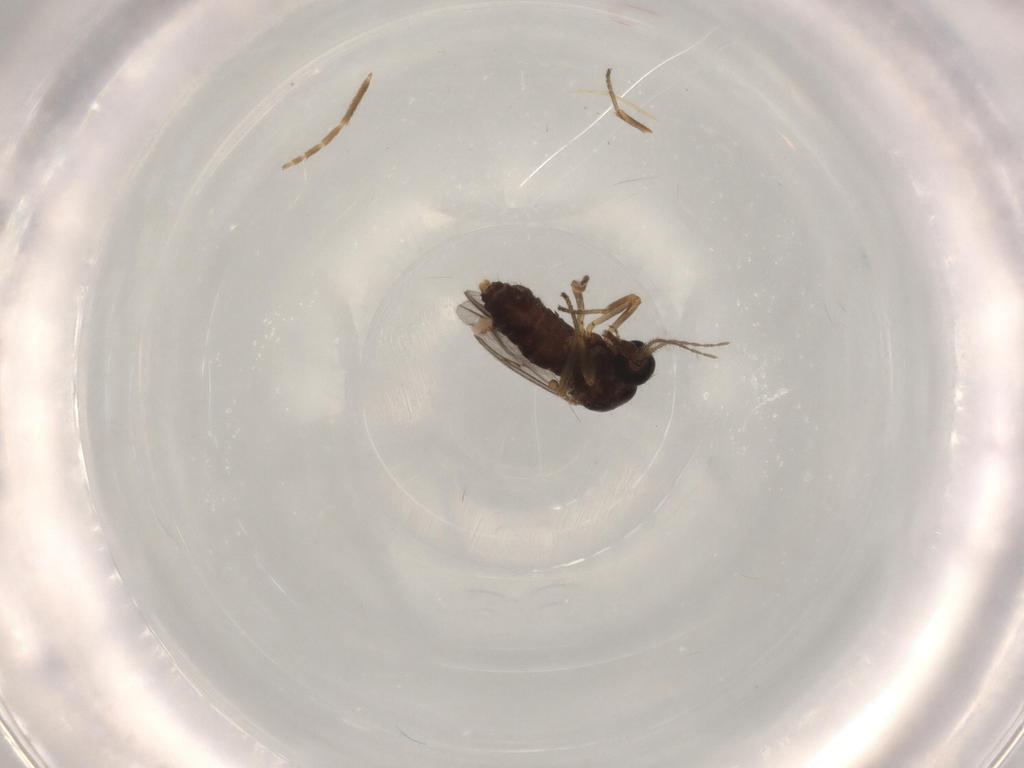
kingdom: Animalia
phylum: Arthropoda
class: Insecta
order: Diptera
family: Ceratopogonidae
